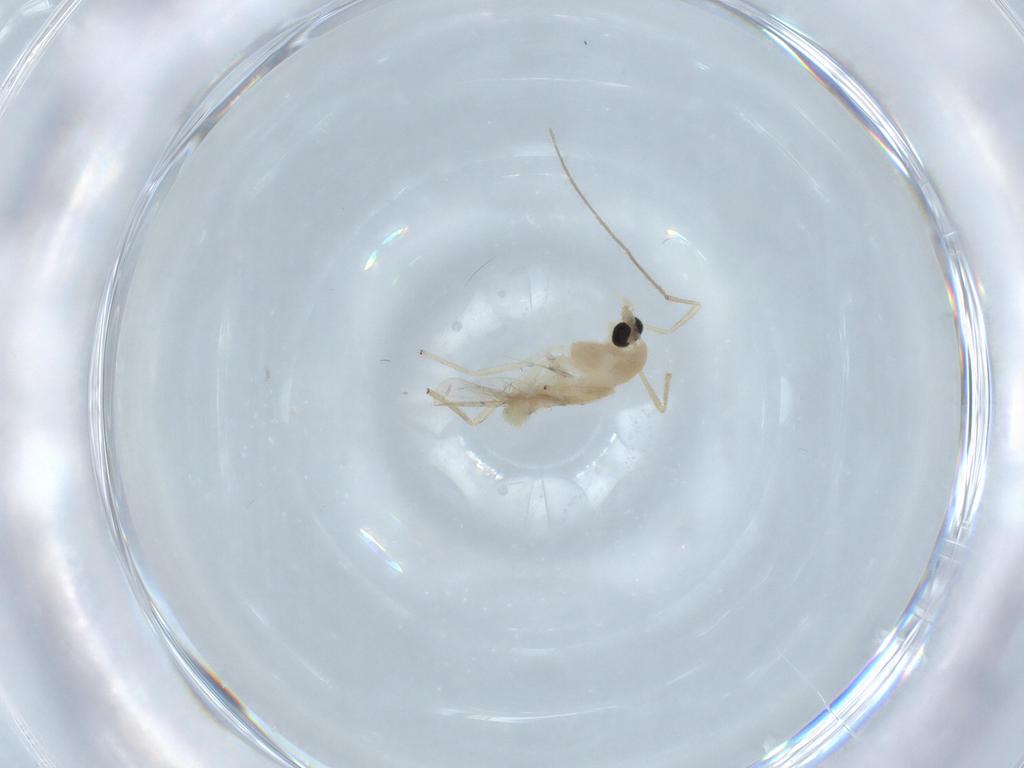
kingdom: Animalia
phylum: Arthropoda
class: Insecta
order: Diptera
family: Chironomidae
